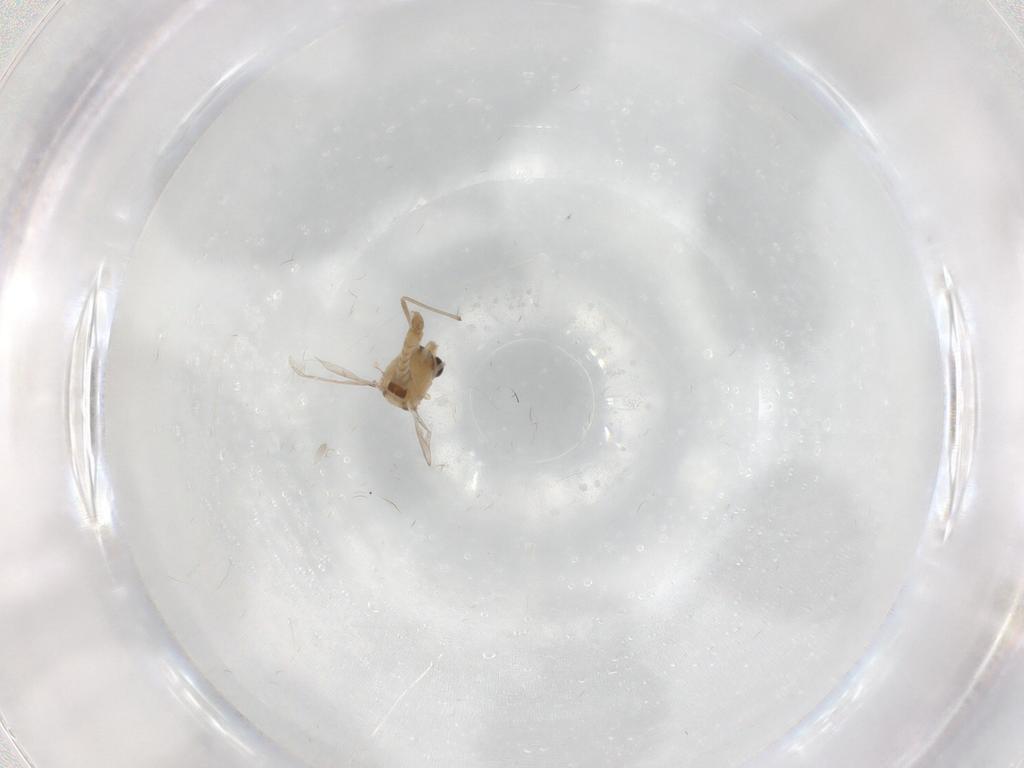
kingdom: Animalia
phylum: Arthropoda
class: Insecta
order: Diptera
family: Chironomidae
